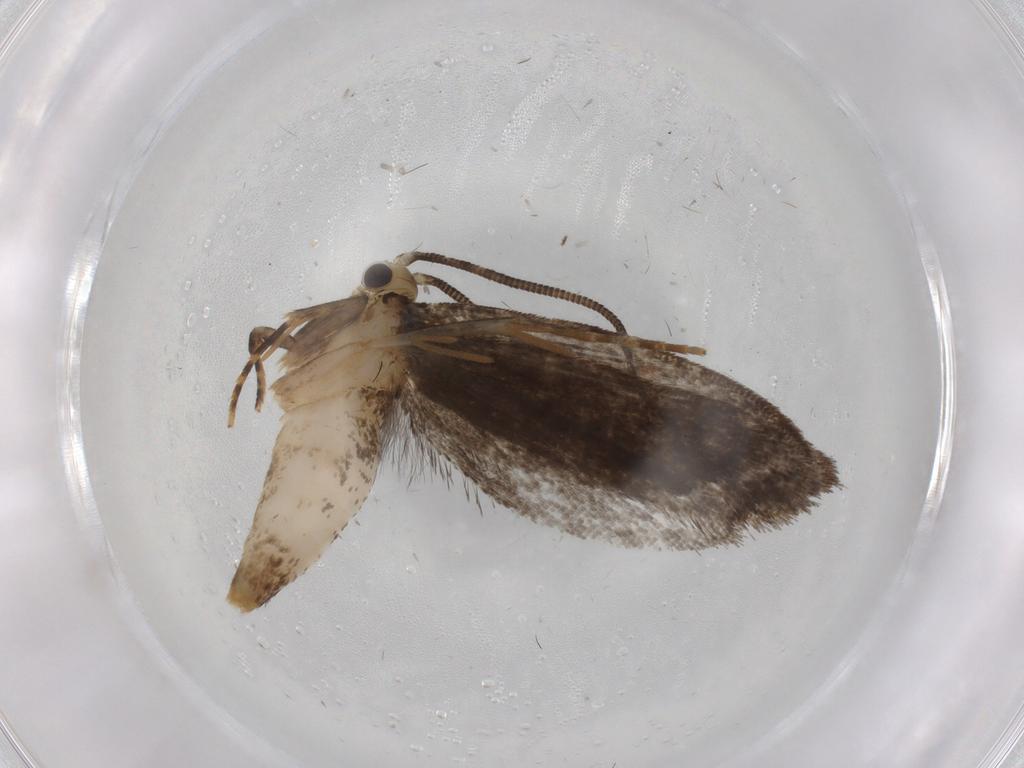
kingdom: Animalia
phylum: Arthropoda
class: Insecta
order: Lepidoptera
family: Tineidae
